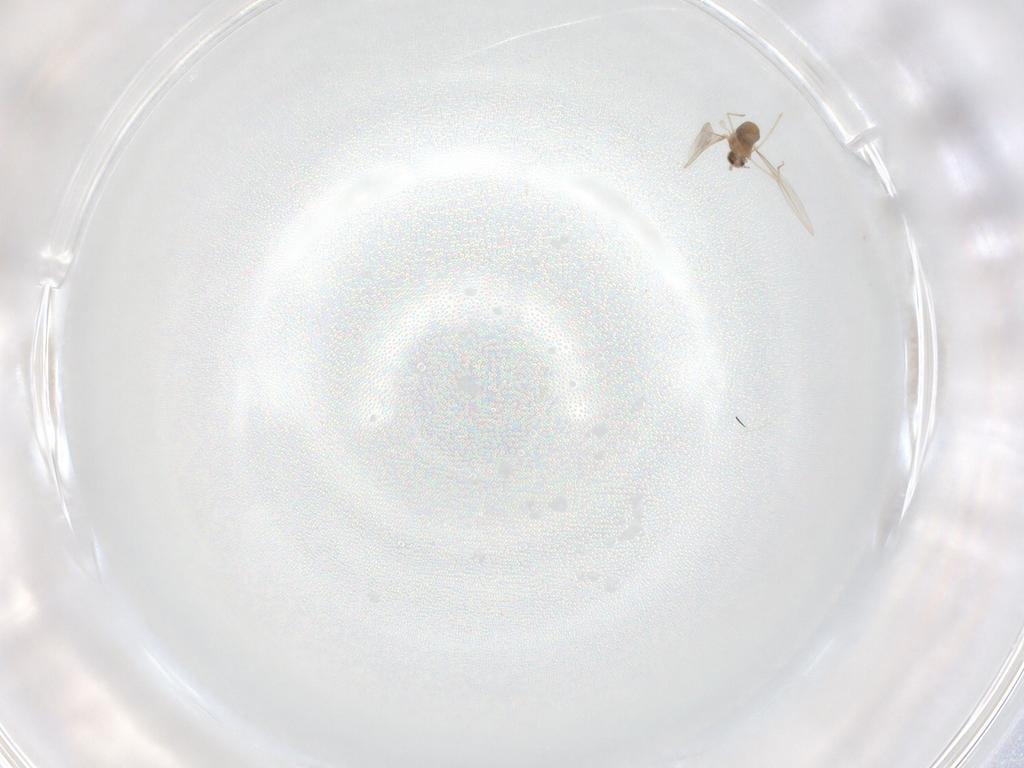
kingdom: Animalia
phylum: Arthropoda
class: Insecta
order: Diptera
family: Cecidomyiidae
